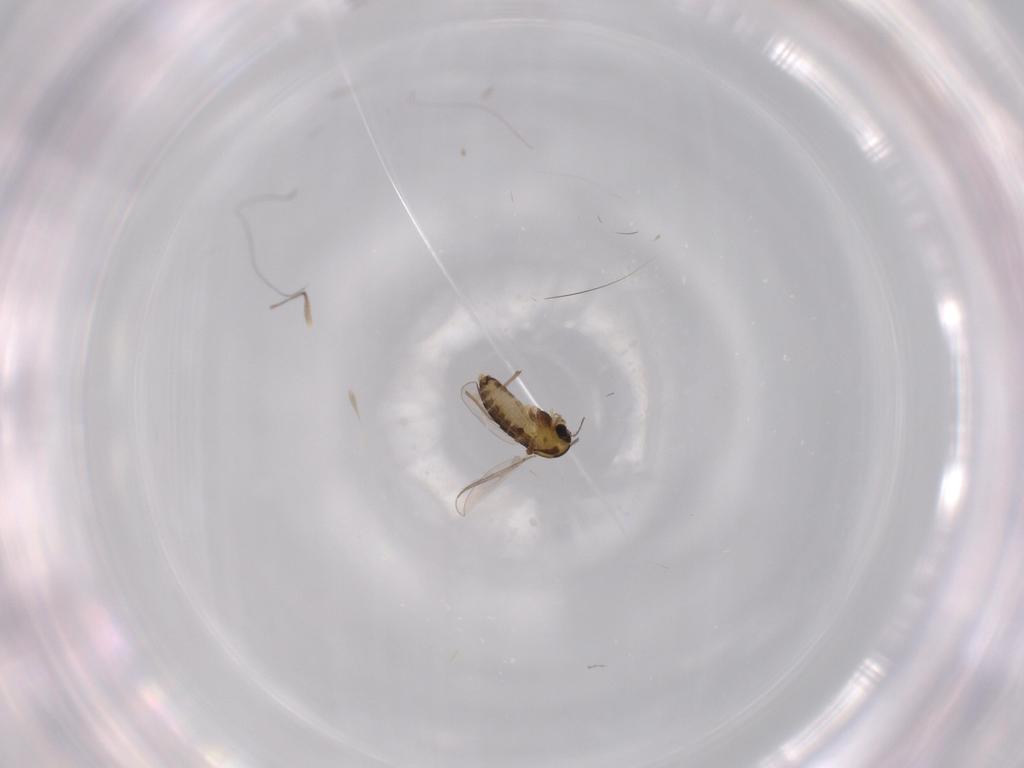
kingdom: Animalia
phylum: Arthropoda
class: Insecta
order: Diptera
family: Chironomidae
